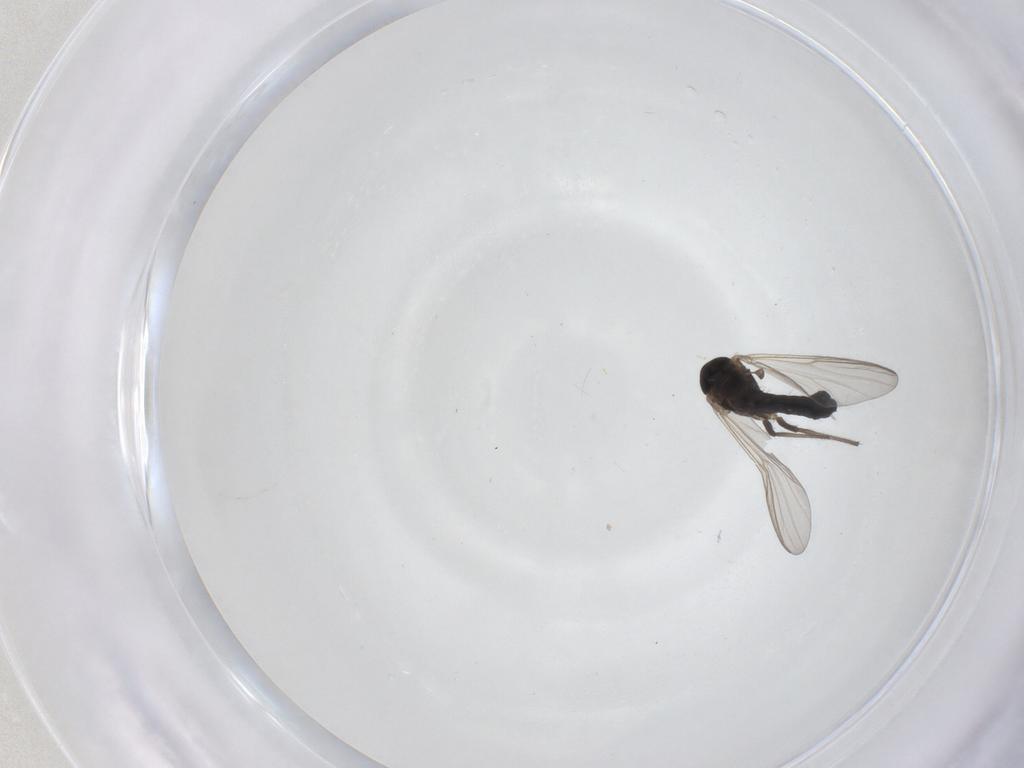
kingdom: Animalia
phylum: Arthropoda
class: Insecta
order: Diptera
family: Chironomidae
